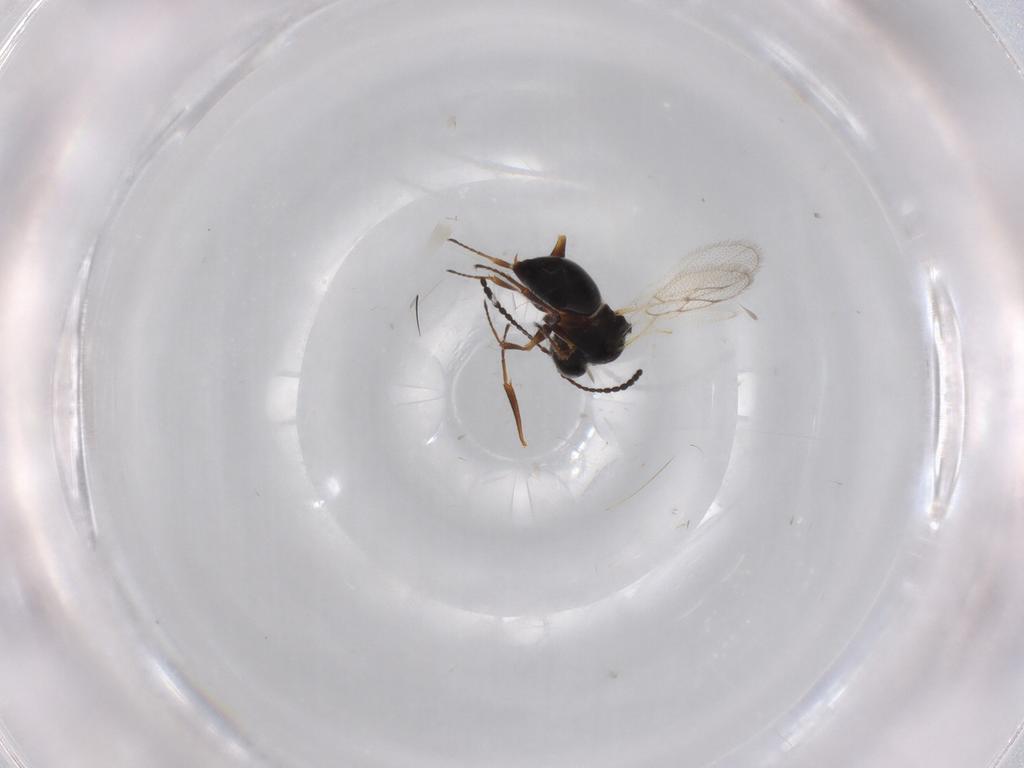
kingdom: Animalia
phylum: Arthropoda
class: Insecta
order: Hymenoptera
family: Figitidae
